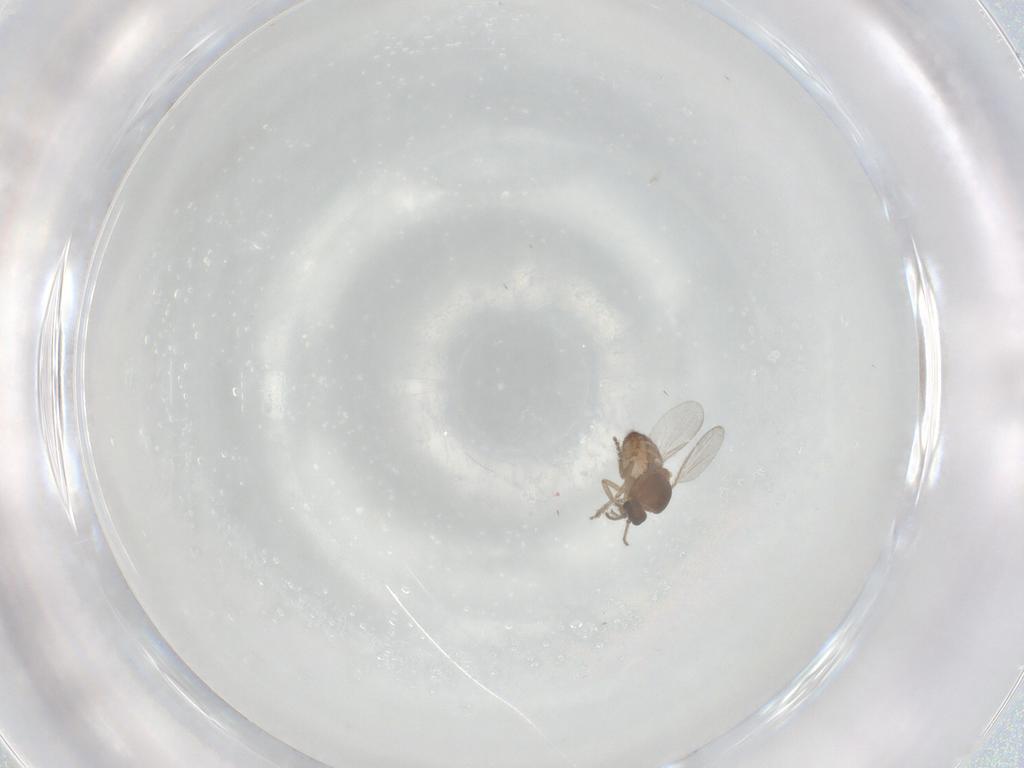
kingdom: Animalia
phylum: Arthropoda
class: Insecta
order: Diptera
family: Ceratopogonidae
